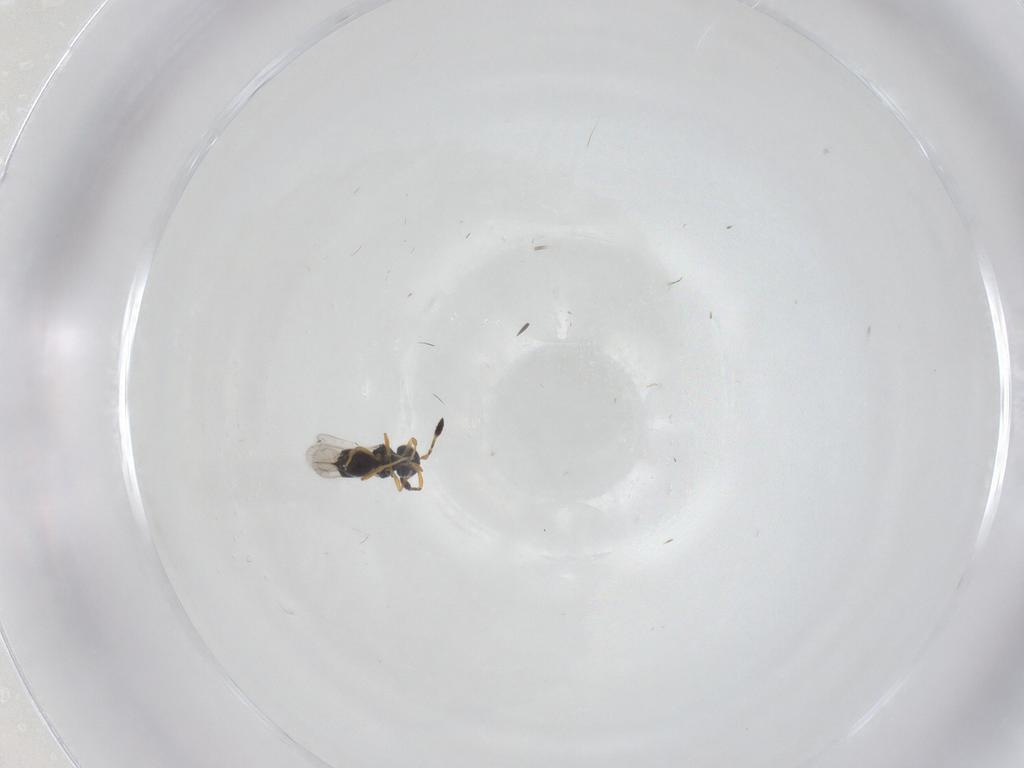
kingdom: Animalia
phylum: Arthropoda
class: Insecta
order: Hymenoptera
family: Scelionidae
